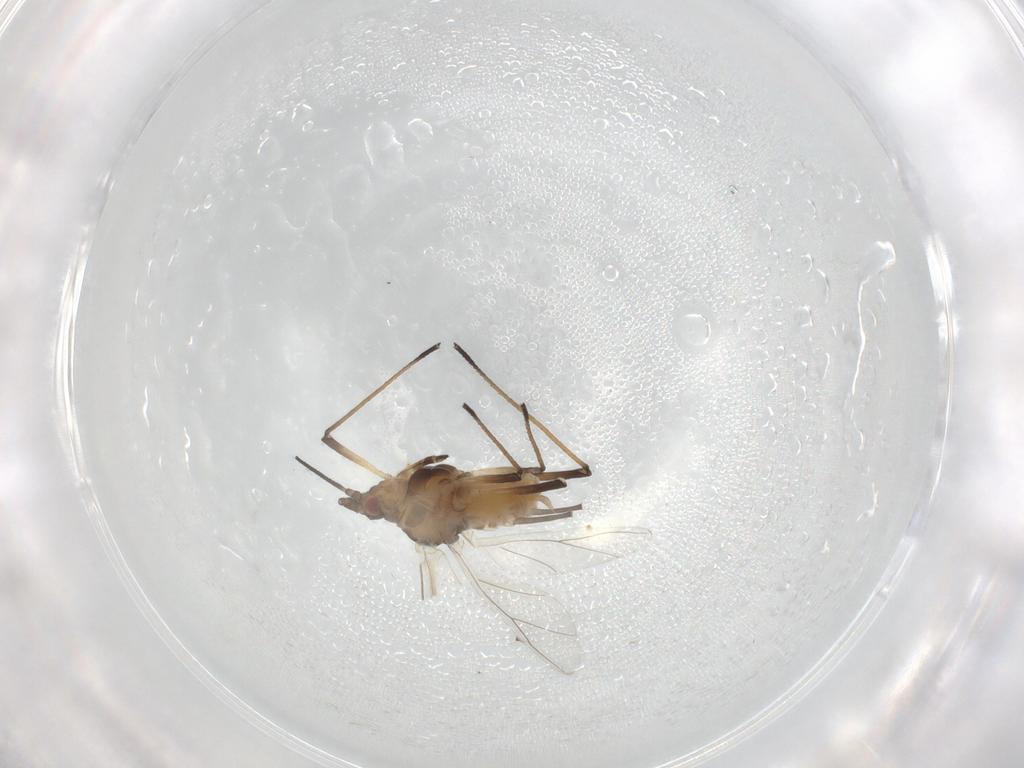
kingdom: Animalia
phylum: Arthropoda
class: Insecta
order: Hemiptera
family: Aphididae
